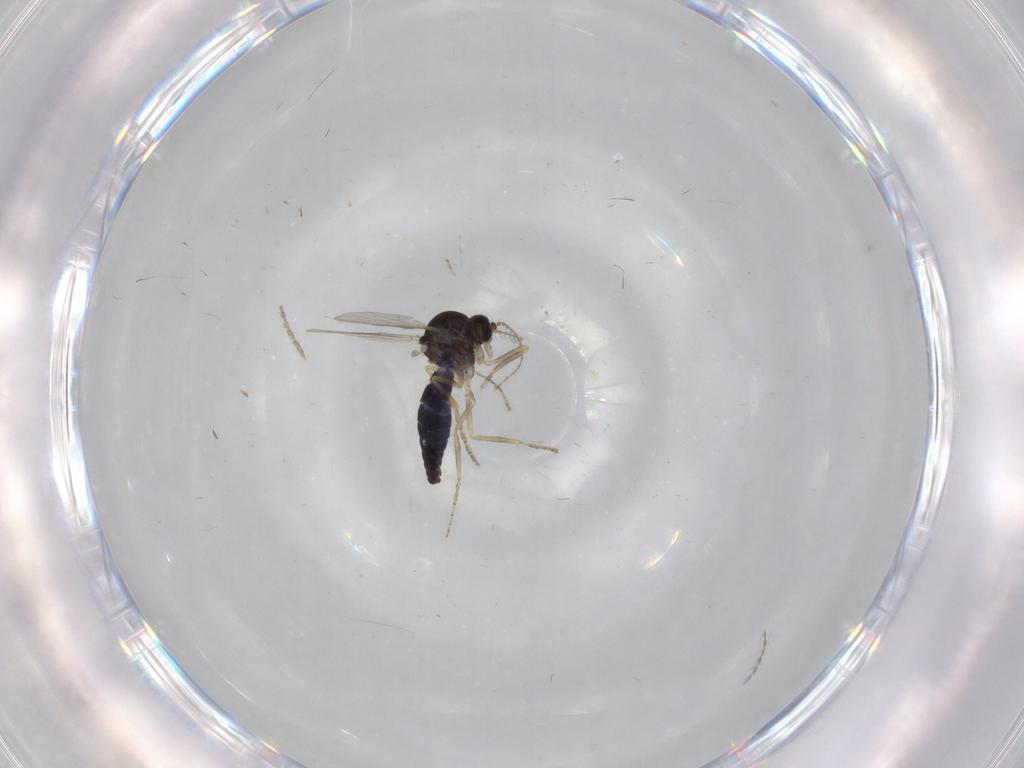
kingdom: Animalia
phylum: Arthropoda
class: Insecta
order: Diptera
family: Ceratopogonidae
